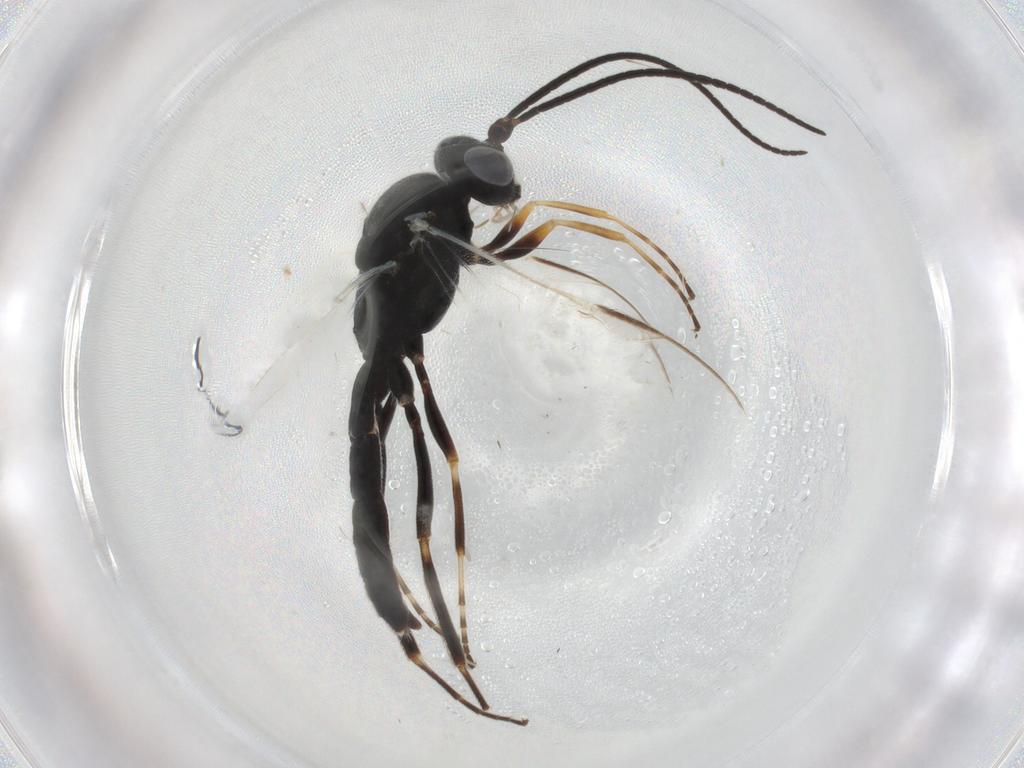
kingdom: Animalia
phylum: Arthropoda
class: Insecta
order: Hymenoptera
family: Ichneumonidae
